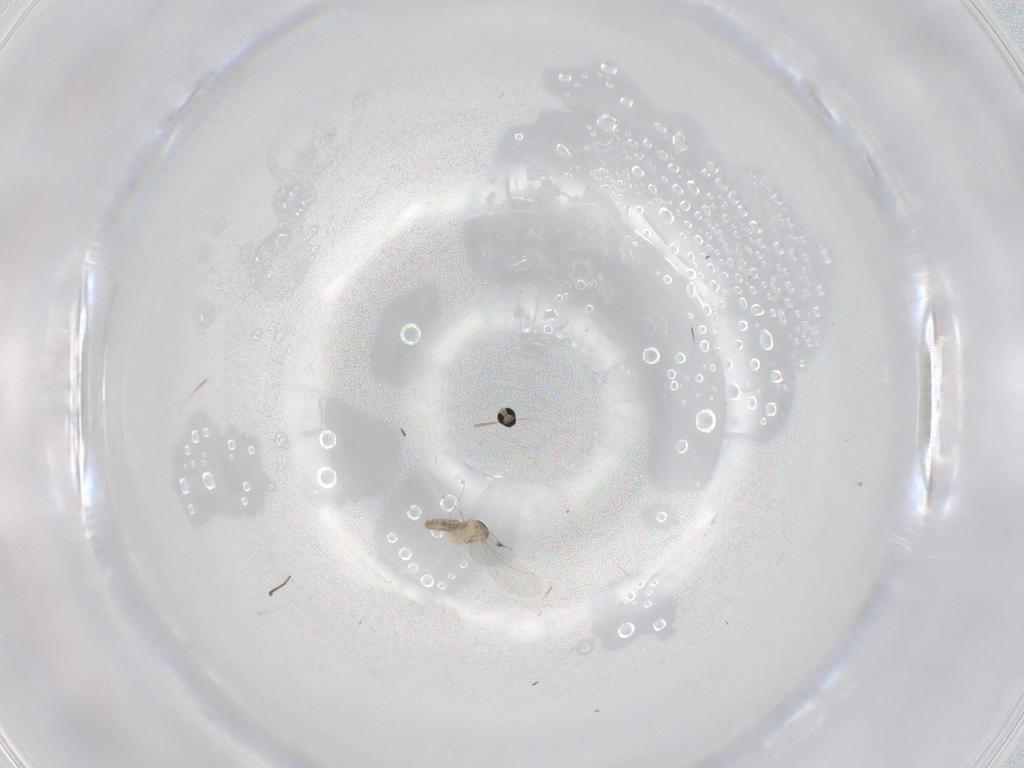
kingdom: Animalia
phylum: Arthropoda
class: Insecta
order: Diptera
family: Cecidomyiidae
